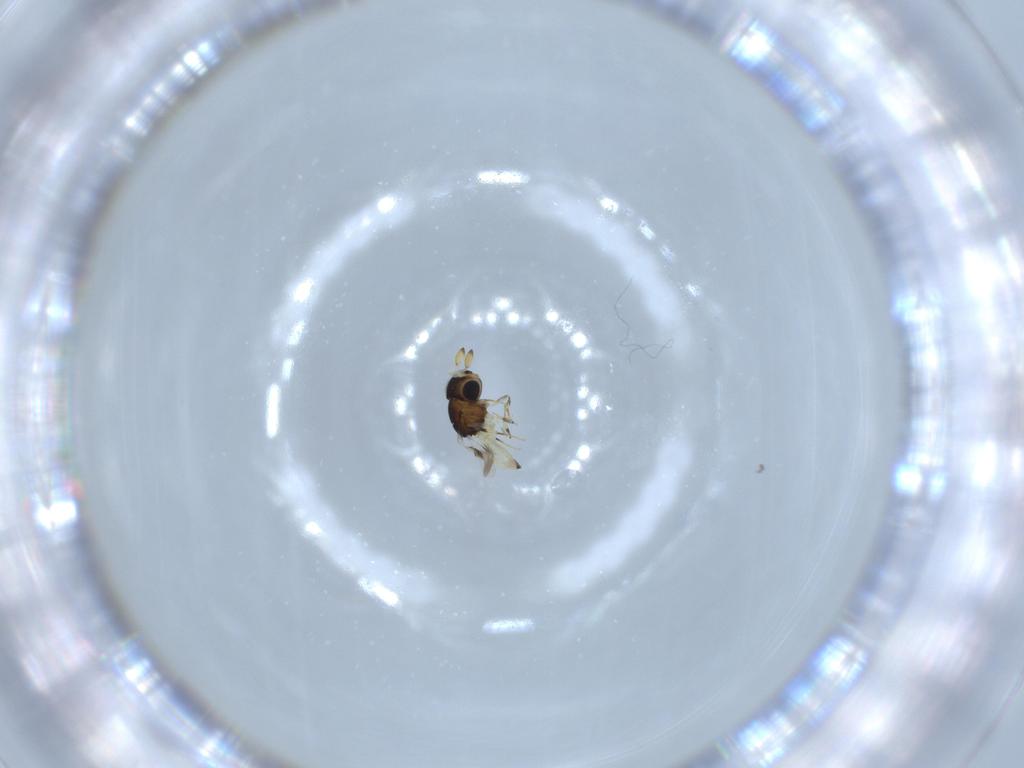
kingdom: Animalia
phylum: Arthropoda
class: Insecta
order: Hymenoptera
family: Scelionidae
